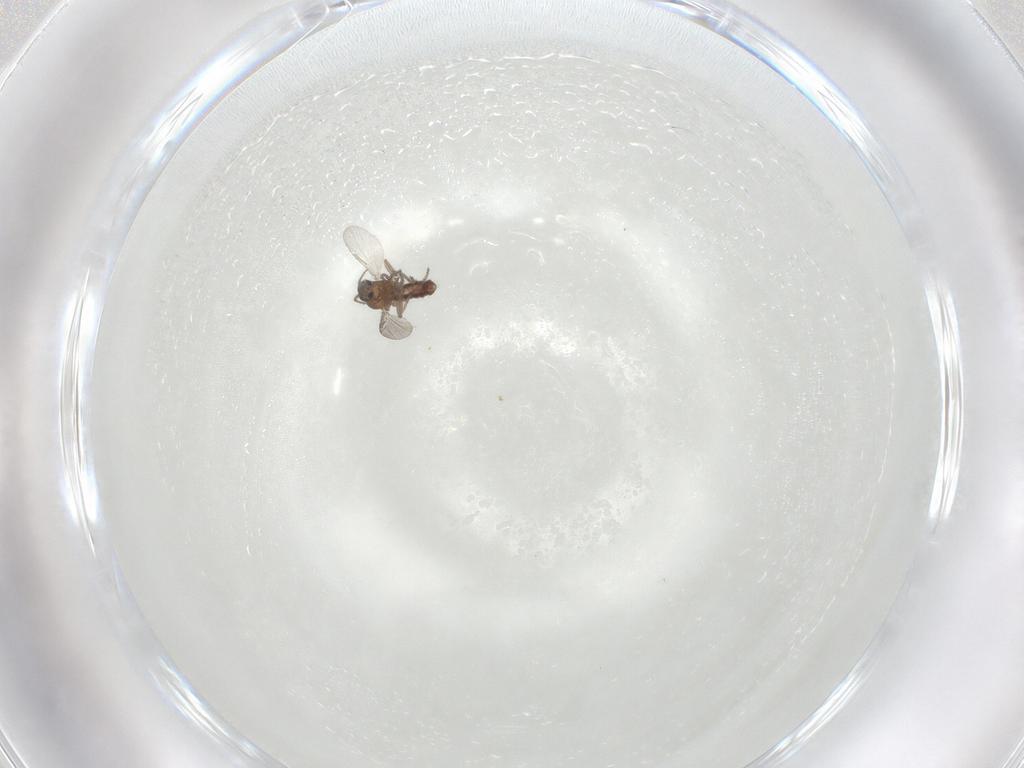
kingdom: Animalia
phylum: Arthropoda
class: Insecta
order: Diptera
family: Ceratopogonidae
